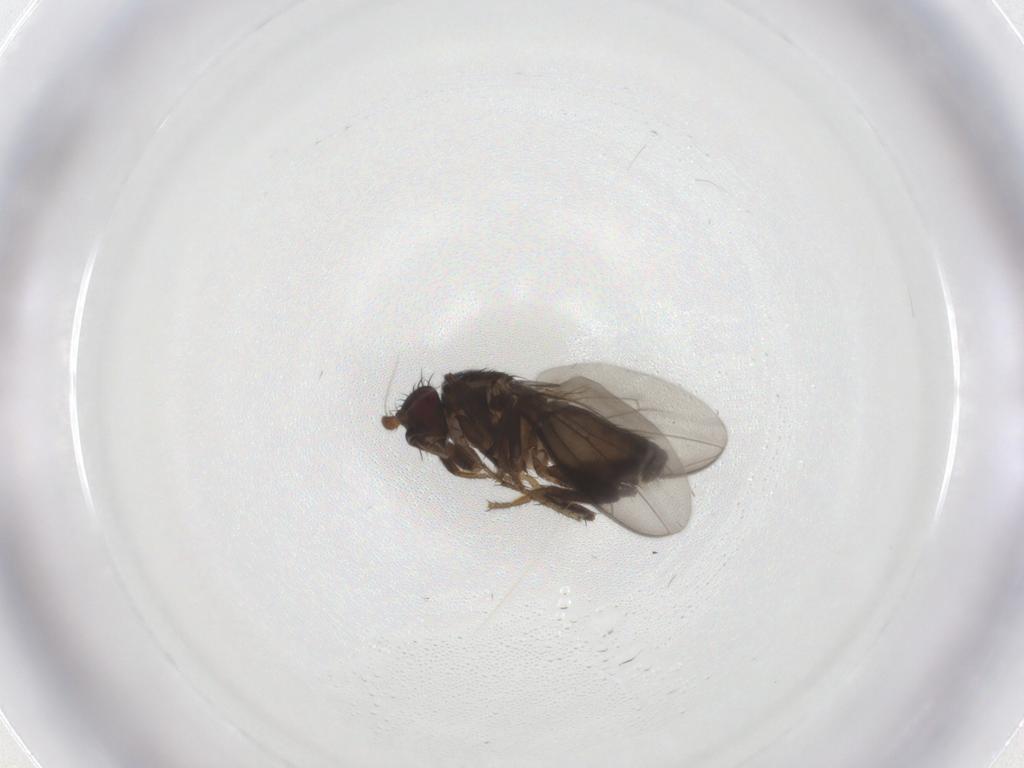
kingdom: Animalia
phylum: Arthropoda
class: Insecta
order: Diptera
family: Sphaeroceridae
